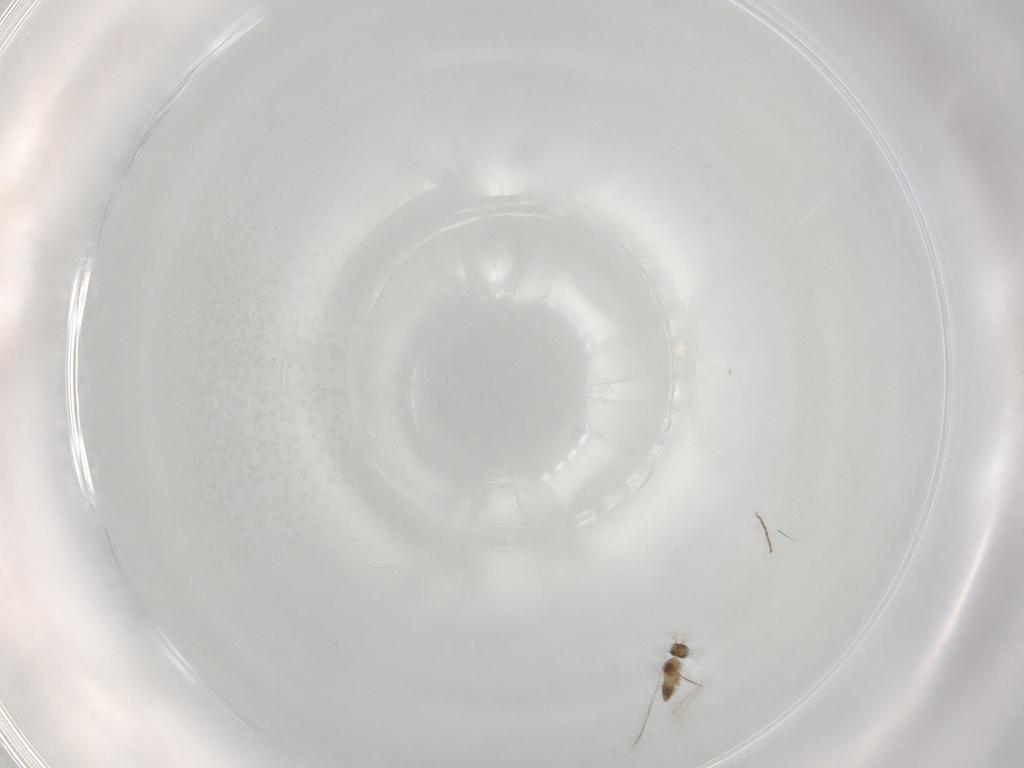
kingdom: Animalia
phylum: Arthropoda
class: Insecta
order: Hymenoptera
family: Mymaridae
